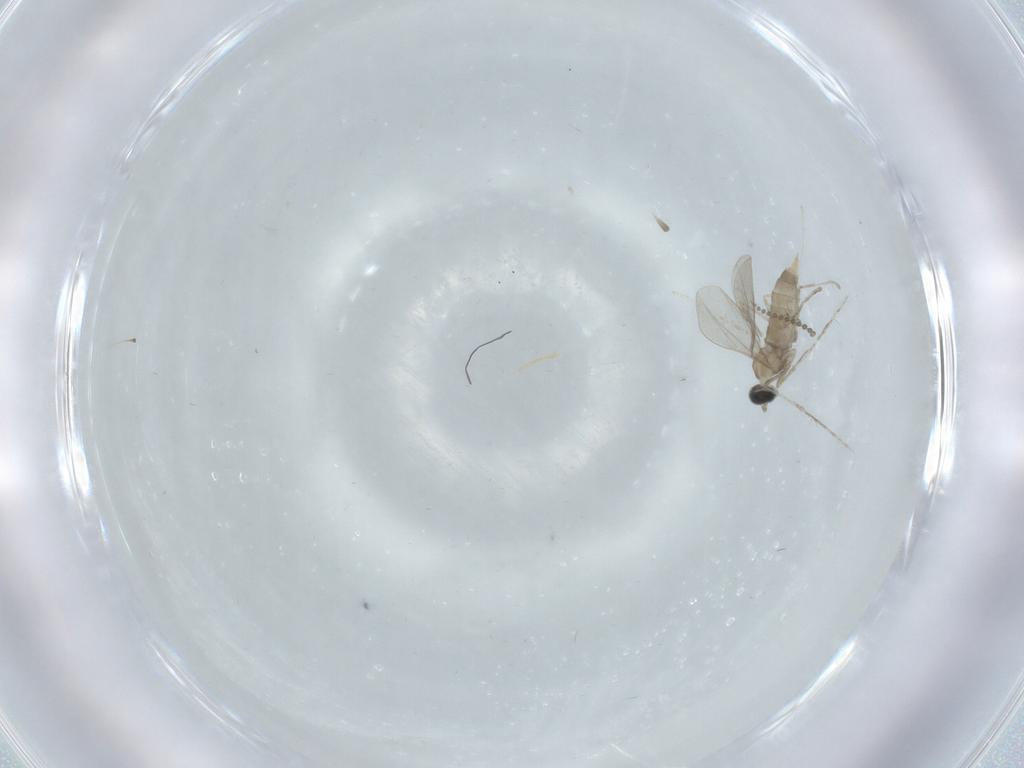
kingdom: Animalia
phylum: Arthropoda
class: Insecta
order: Diptera
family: Cecidomyiidae
